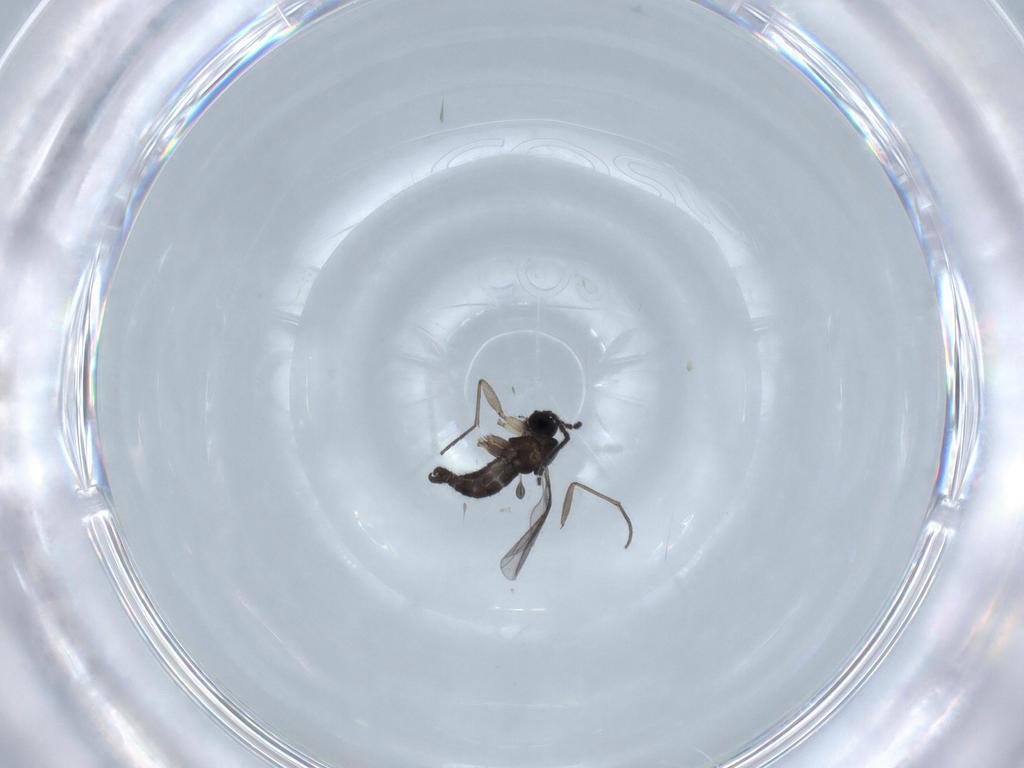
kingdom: Animalia
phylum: Arthropoda
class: Insecta
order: Diptera
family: Sciaridae
